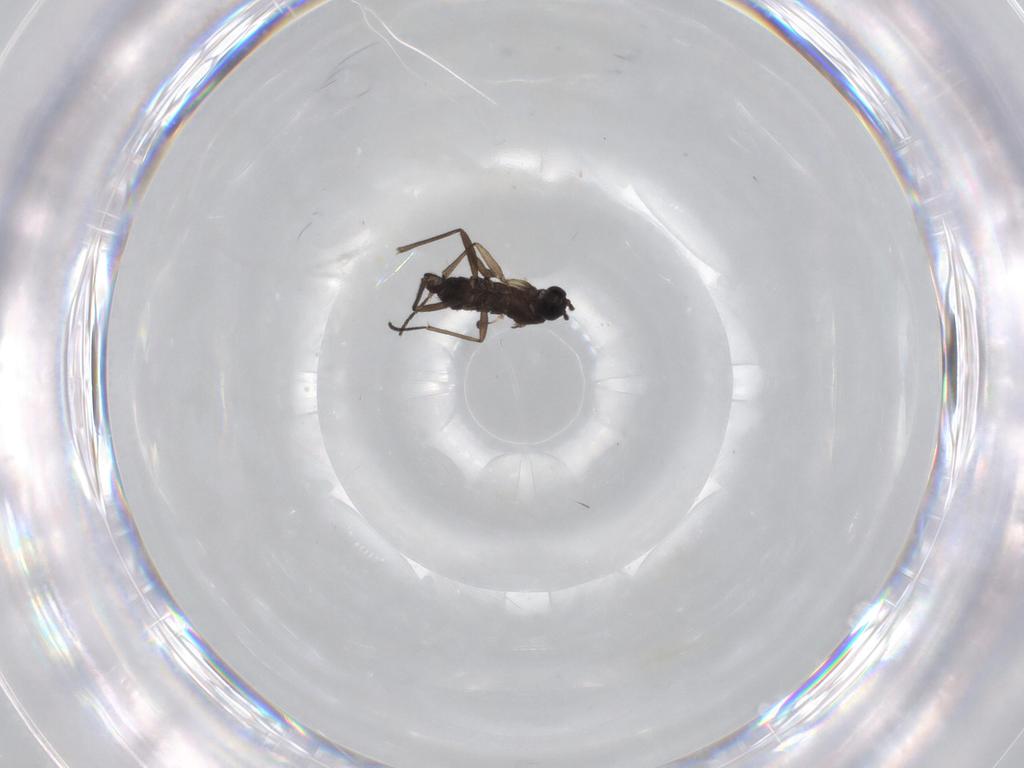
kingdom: Animalia
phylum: Arthropoda
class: Insecta
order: Diptera
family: Sciaridae
